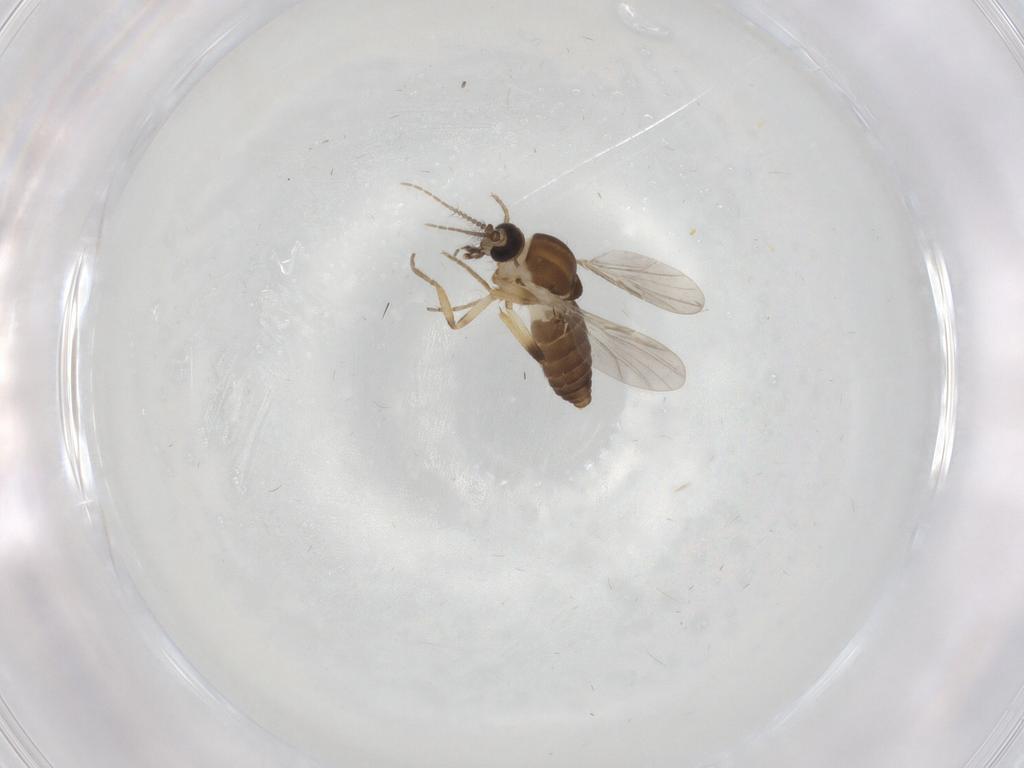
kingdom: Animalia
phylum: Arthropoda
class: Insecta
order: Diptera
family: Ceratopogonidae
